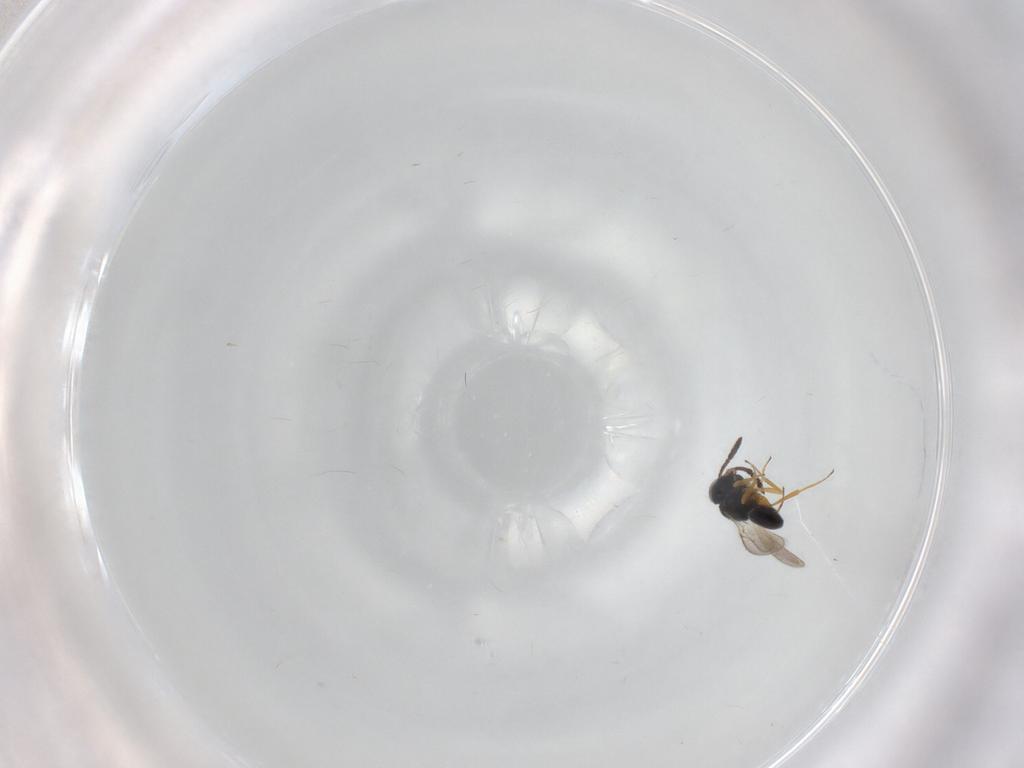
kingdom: Animalia
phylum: Arthropoda
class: Insecta
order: Hymenoptera
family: Scelionidae
